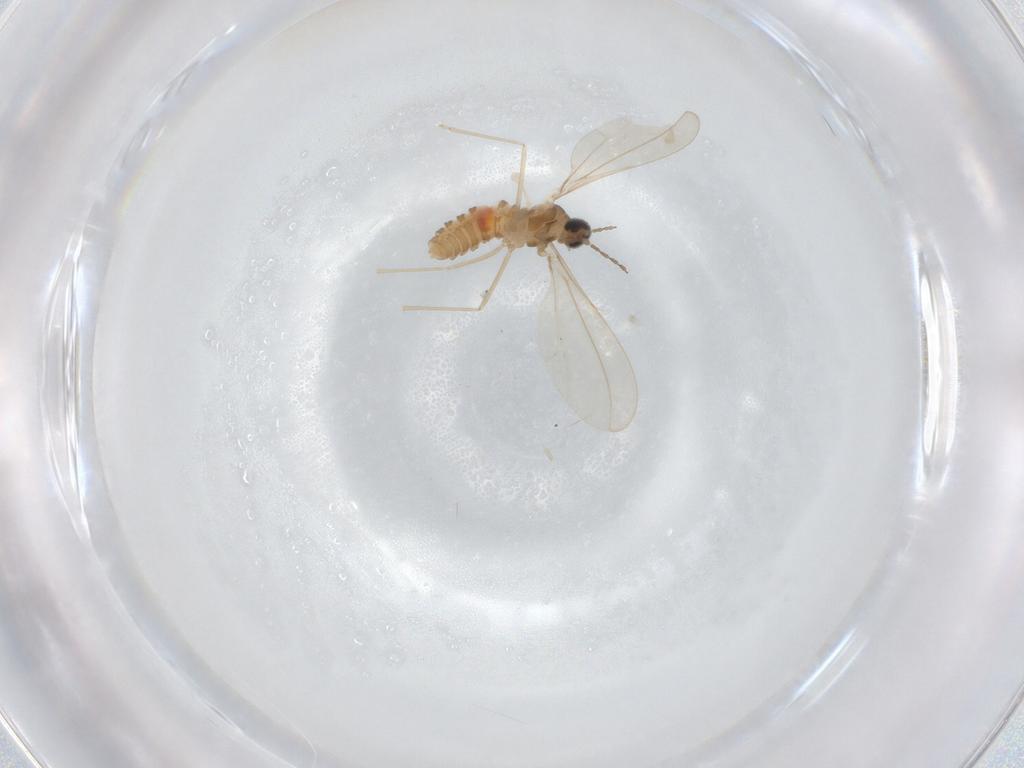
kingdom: Animalia
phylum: Arthropoda
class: Insecta
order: Diptera
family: Cecidomyiidae
